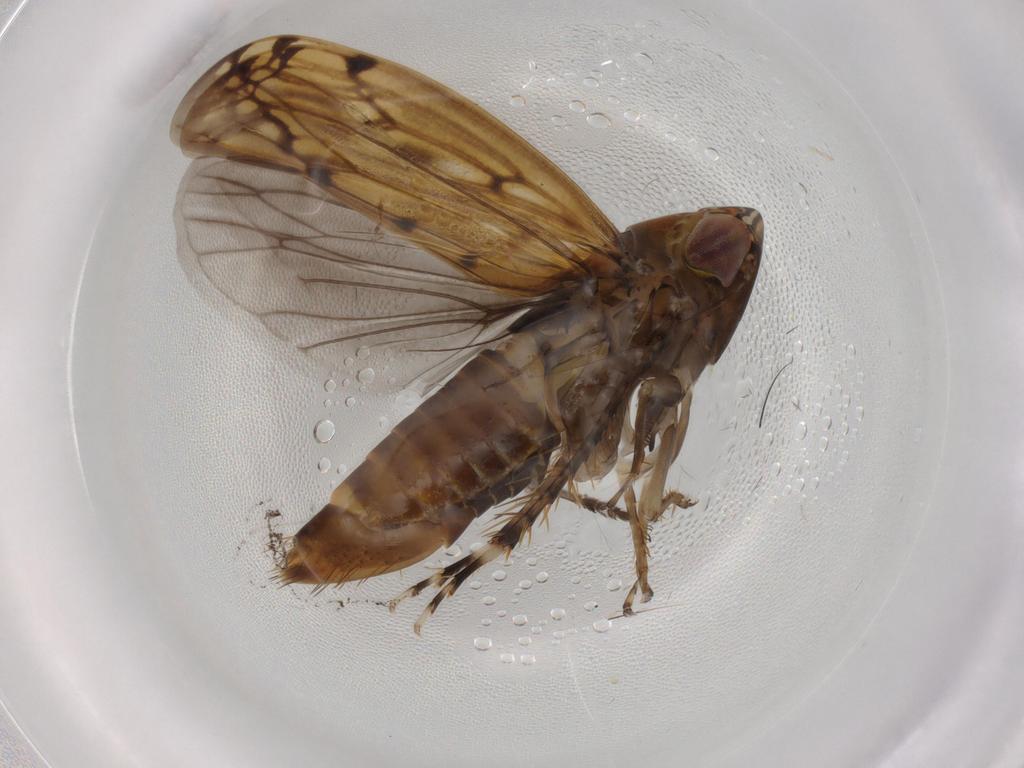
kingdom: Animalia
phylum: Arthropoda
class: Insecta
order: Hemiptera
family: Cicadellidae
